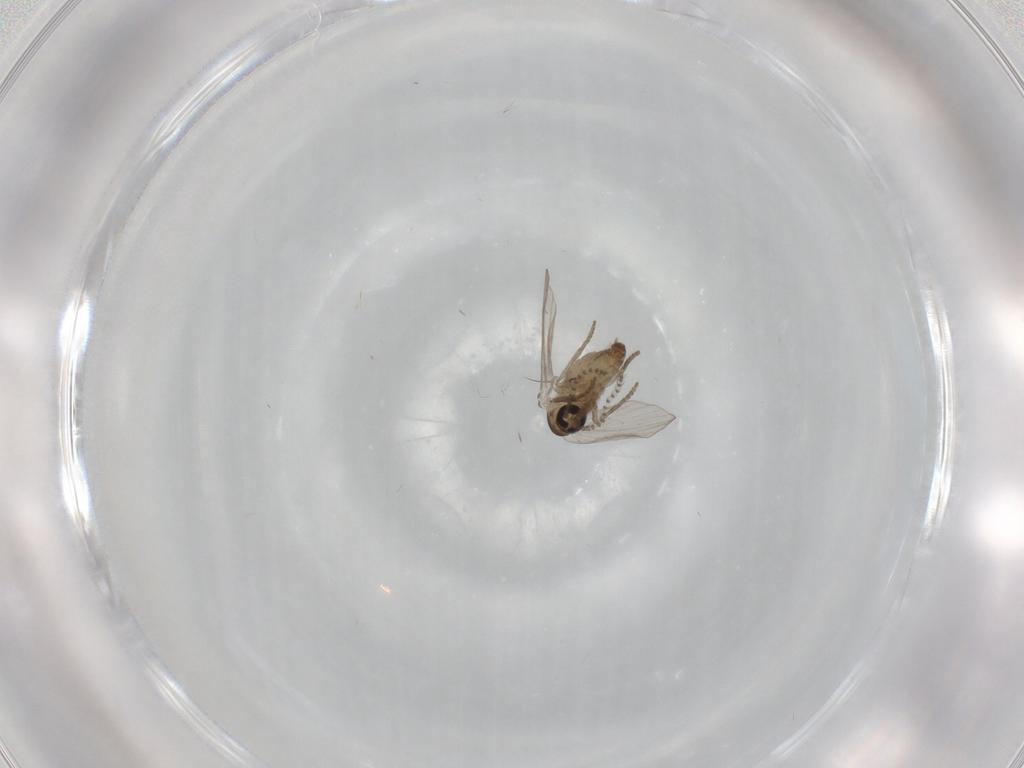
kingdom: Animalia
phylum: Arthropoda
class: Insecta
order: Diptera
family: Psychodidae
